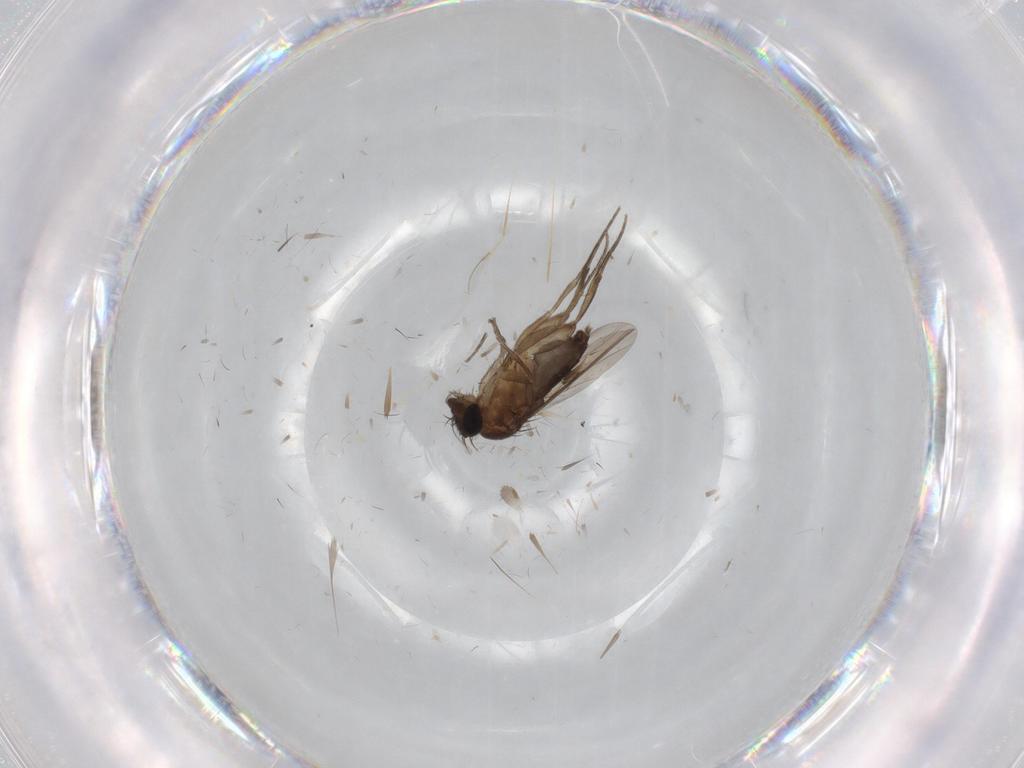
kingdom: Animalia
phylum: Arthropoda
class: Insecta
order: Diptera
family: Phoridae
